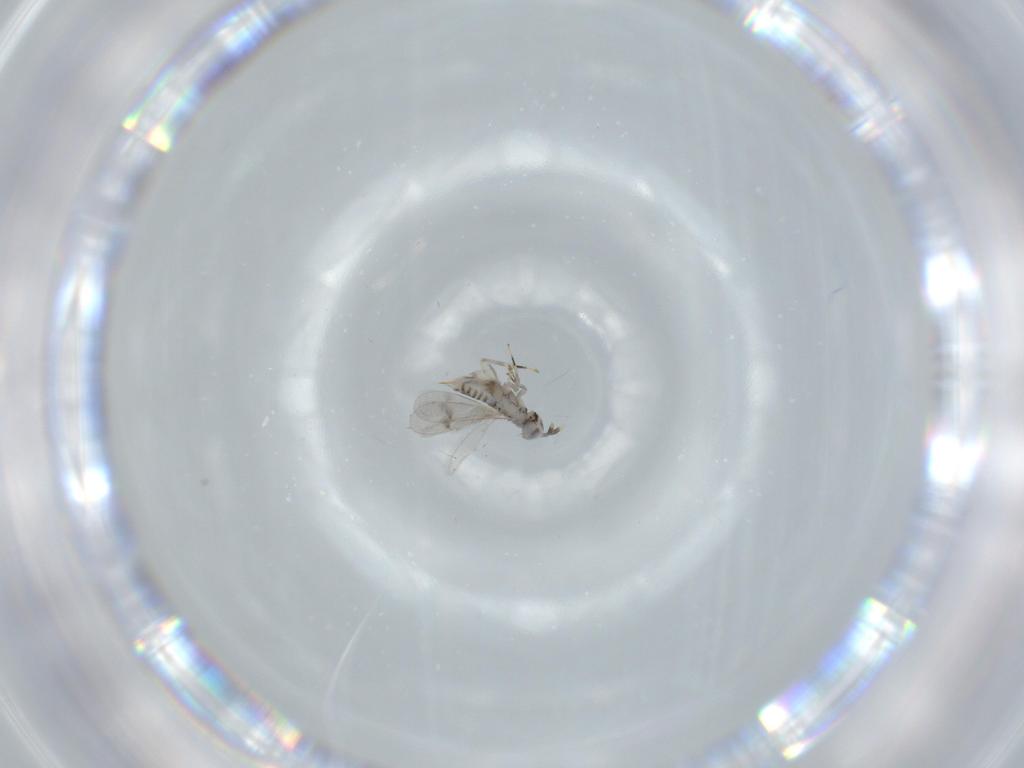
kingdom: Animalia
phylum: Arthropoda
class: Insecta
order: Hymenoptera
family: Aphelinidae
